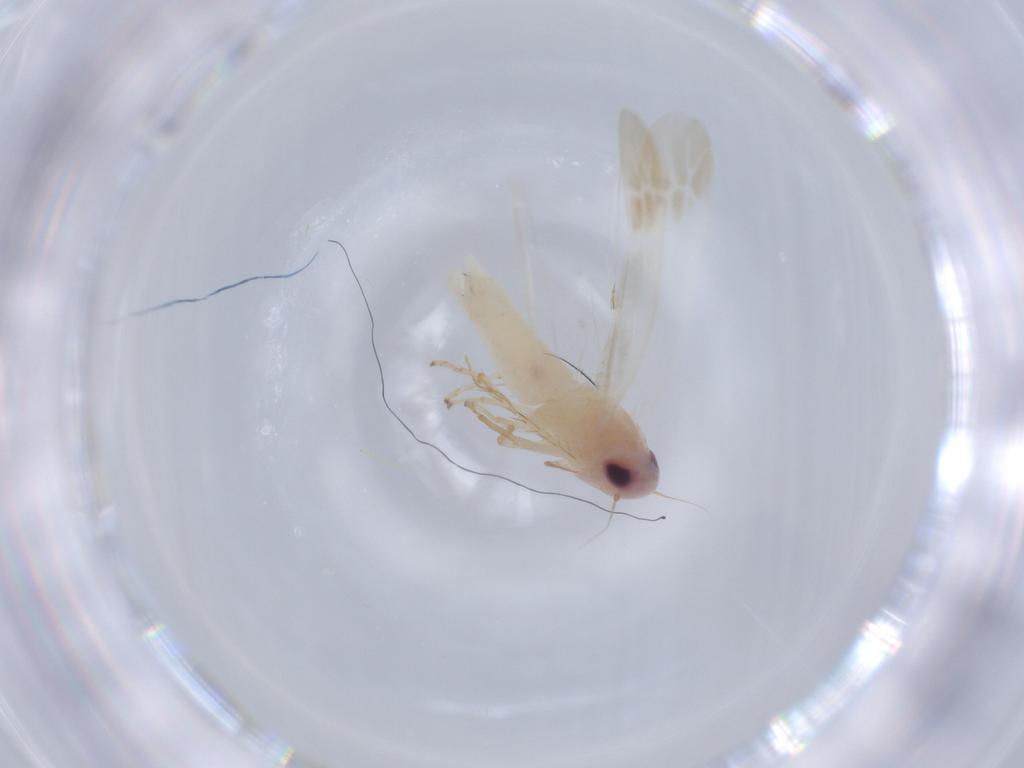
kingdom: Animalia
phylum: Arthropoda
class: Insecta
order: Hemiptera
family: Cicadellidae
